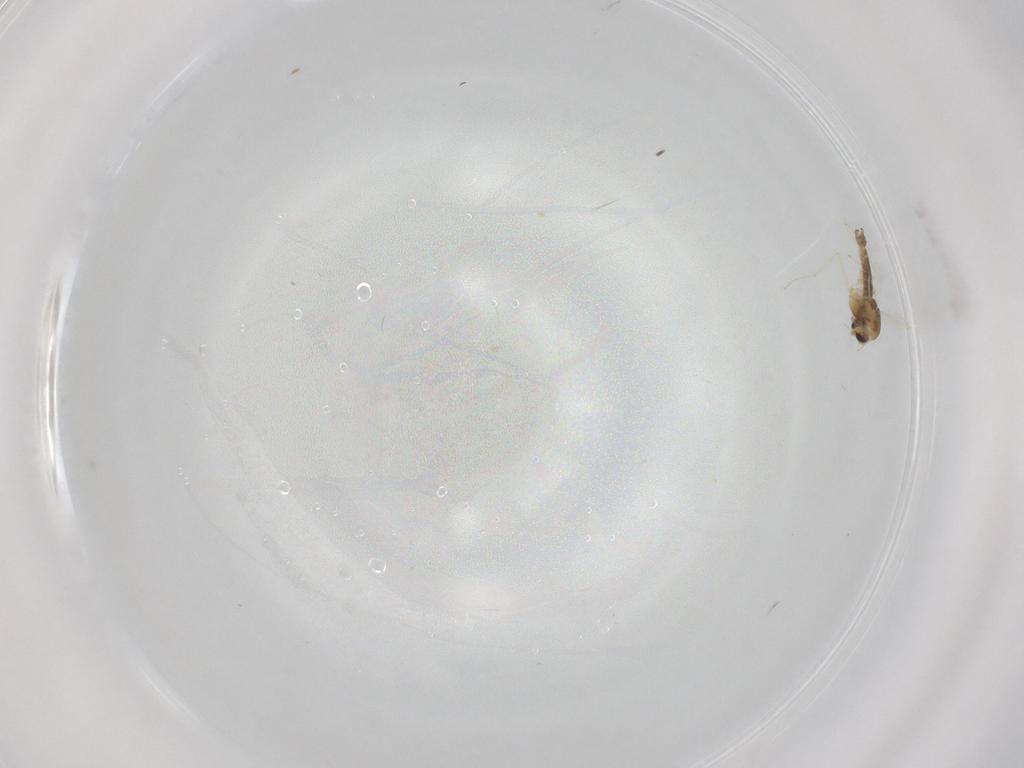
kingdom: Animalia
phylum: Arthropoda
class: Insecta
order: Diptera
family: Chironomidae
